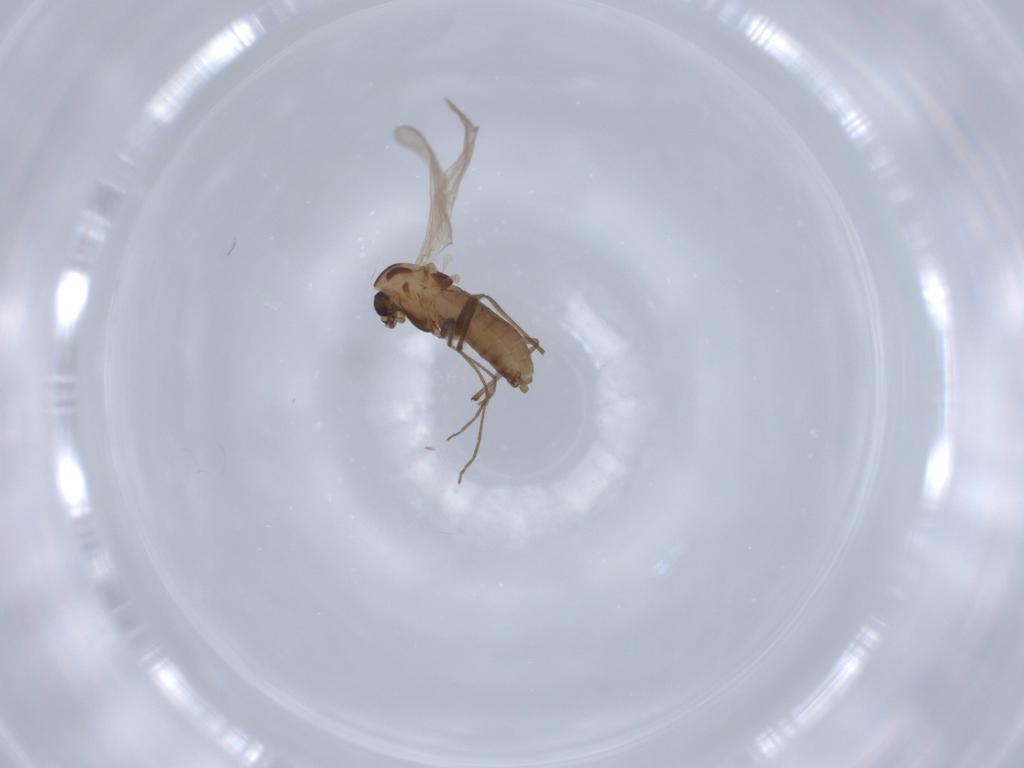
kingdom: Animalia
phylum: Arthropoda
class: Insecta
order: Diptera
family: Chironomidae
